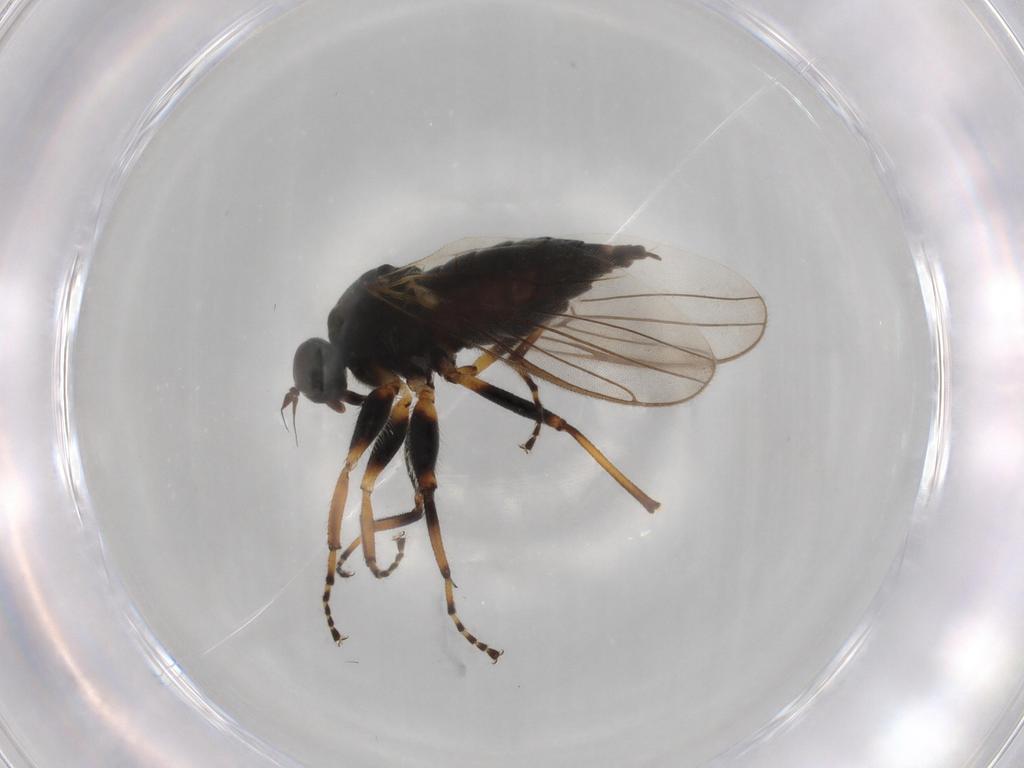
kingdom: Animalia
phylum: Arthropoda
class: Insecta
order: Diptera
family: Hybotidae
